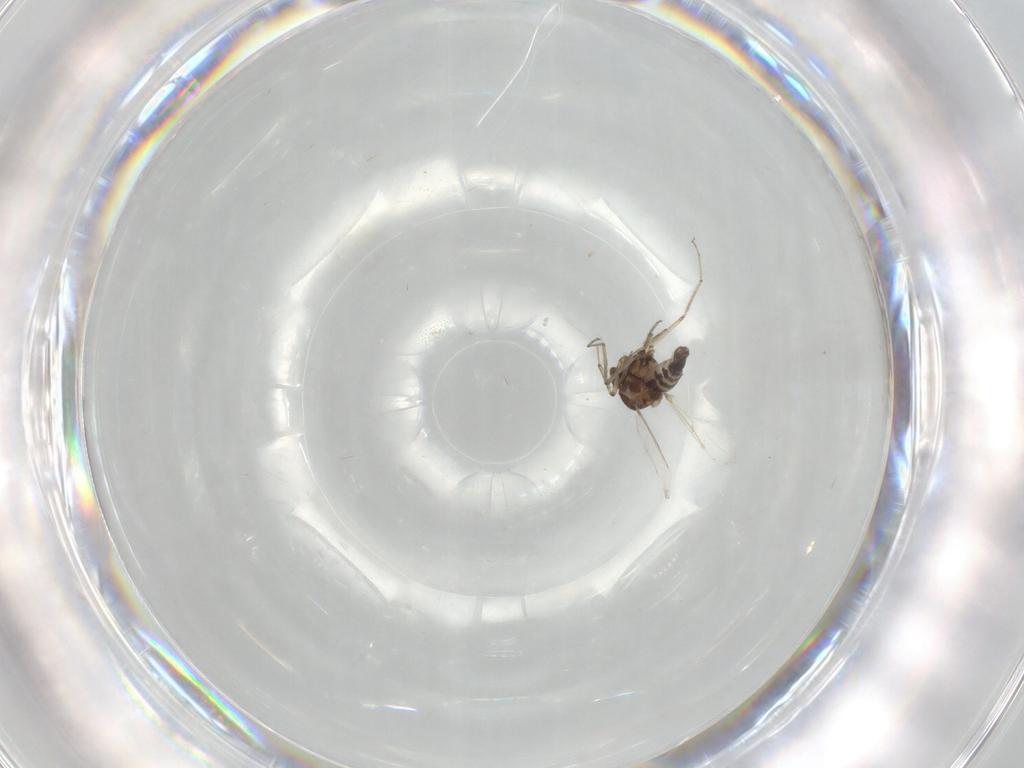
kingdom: Animalia
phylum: Arthropoda
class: Insecta
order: Diptera
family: Ceratopogonidae
